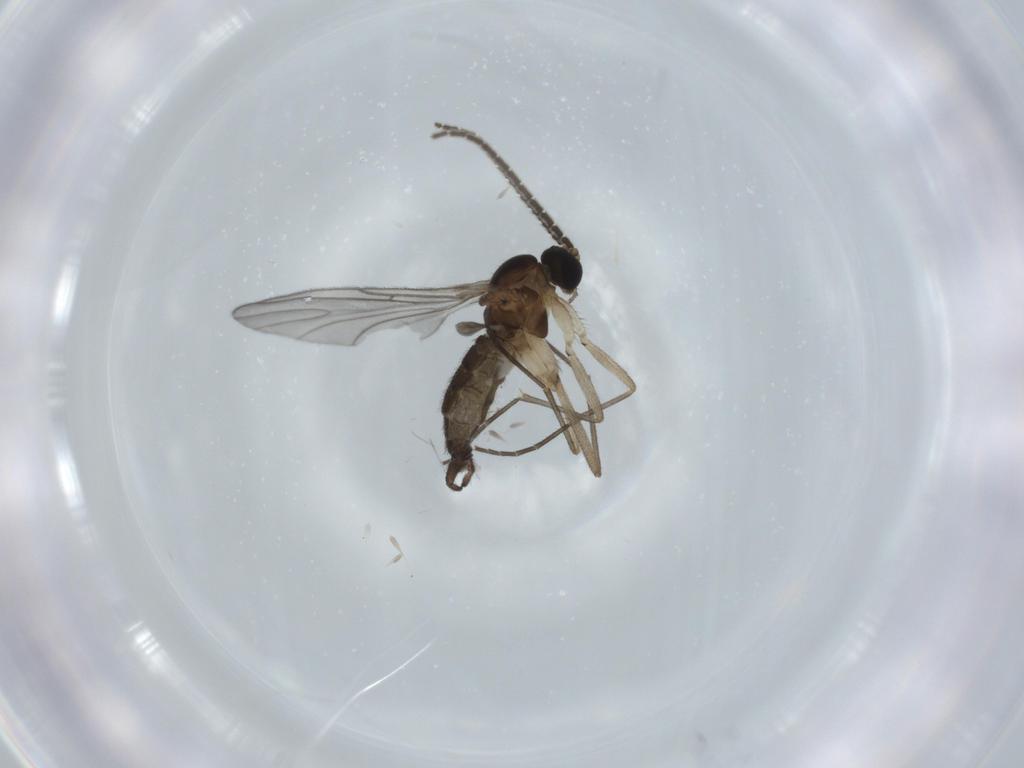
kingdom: Animalia
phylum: Arthropoda
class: Insecta
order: Diptera
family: Sciaridae
